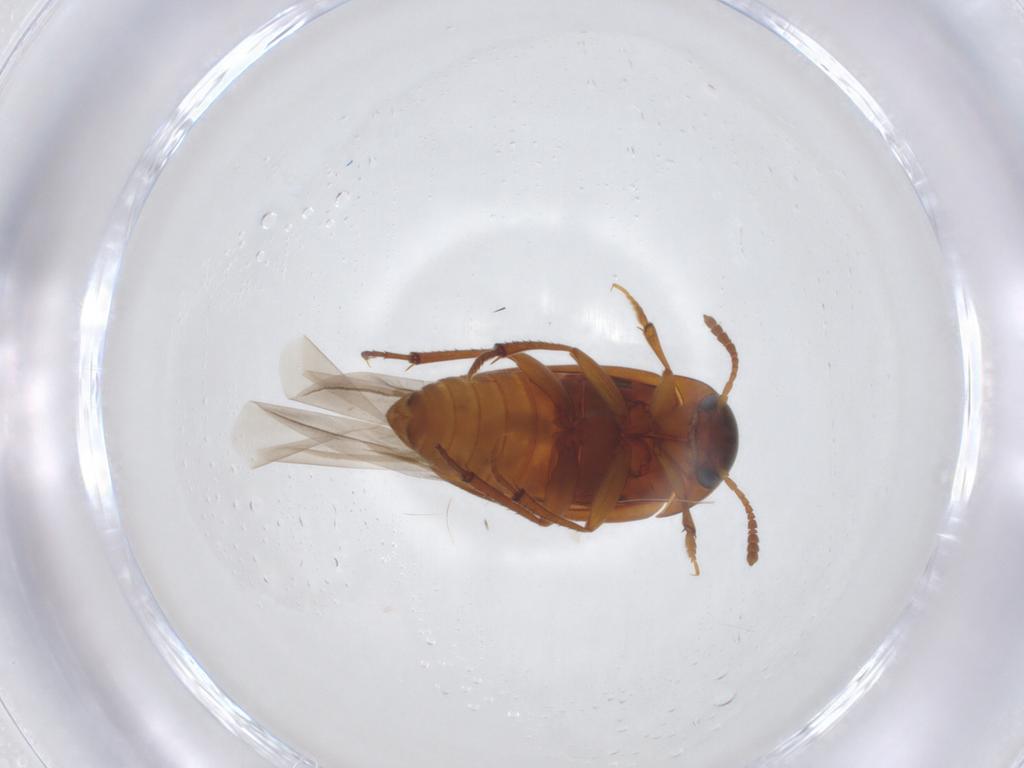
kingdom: Animalia
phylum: Arthropoda
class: Insecta
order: Coleoptera
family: Leiodidae
